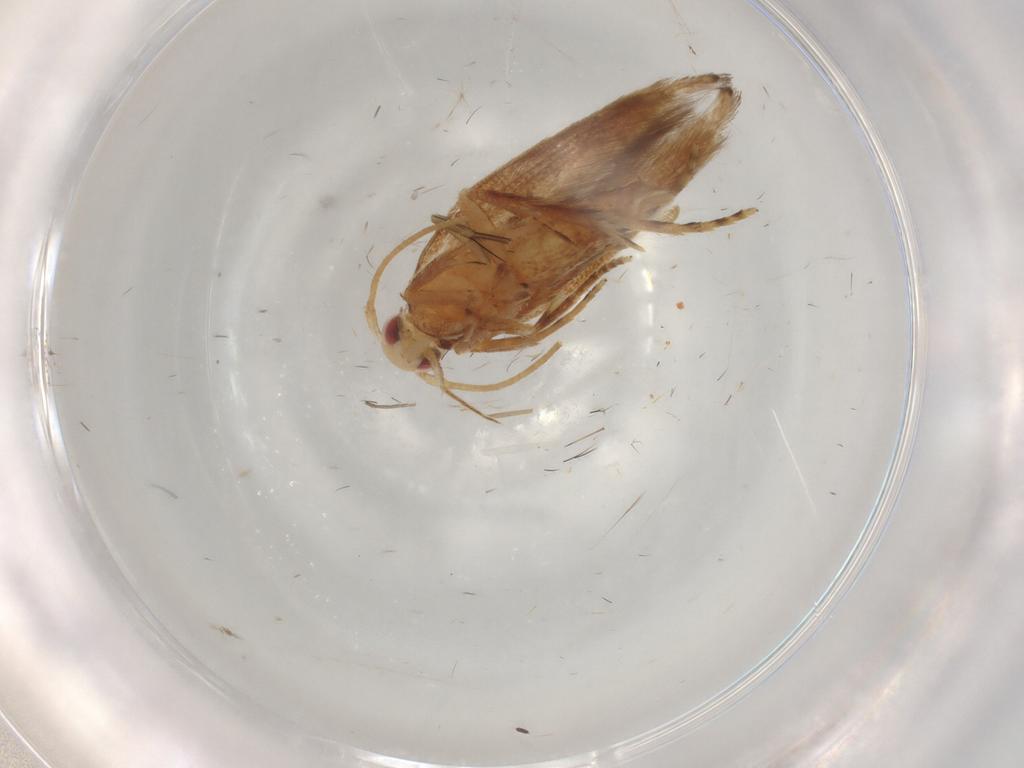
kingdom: Animalia
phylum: Arthropoda
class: Insecta
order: Lepidoptera
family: Cosmopterigidae
